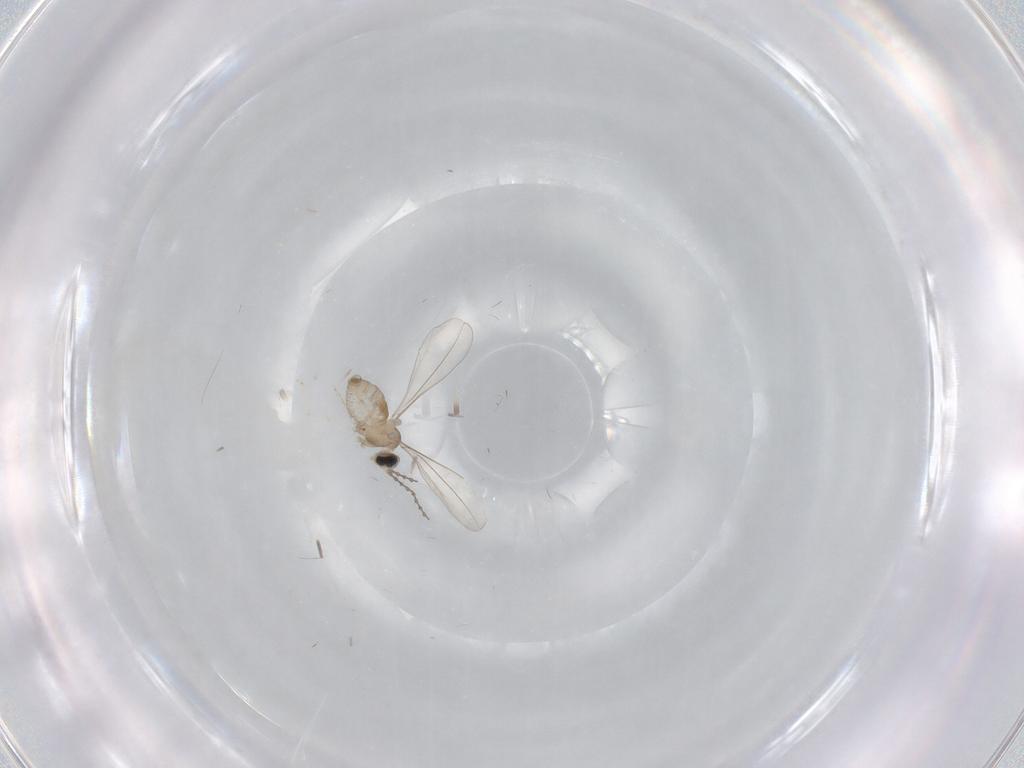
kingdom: Animalia
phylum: Arthropoda
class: Insecta
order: Diptera
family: Cecidomyiidae
